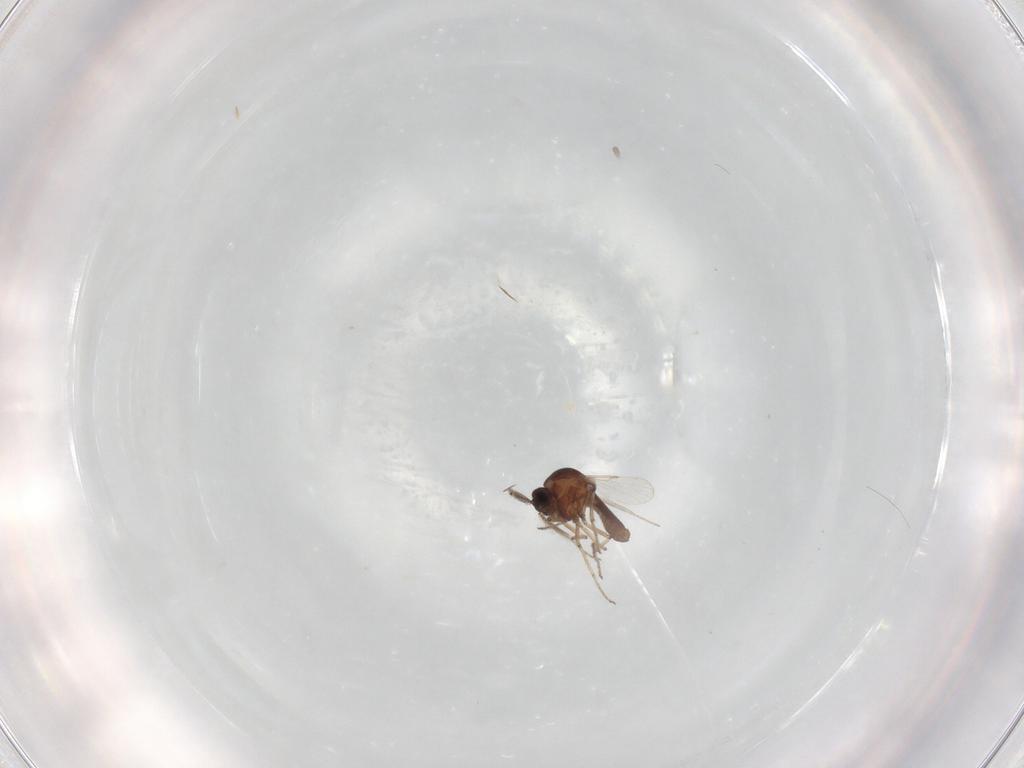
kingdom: Animalia
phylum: Arthropoda
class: Insecta
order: Diptera
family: Ceratopogonidae
